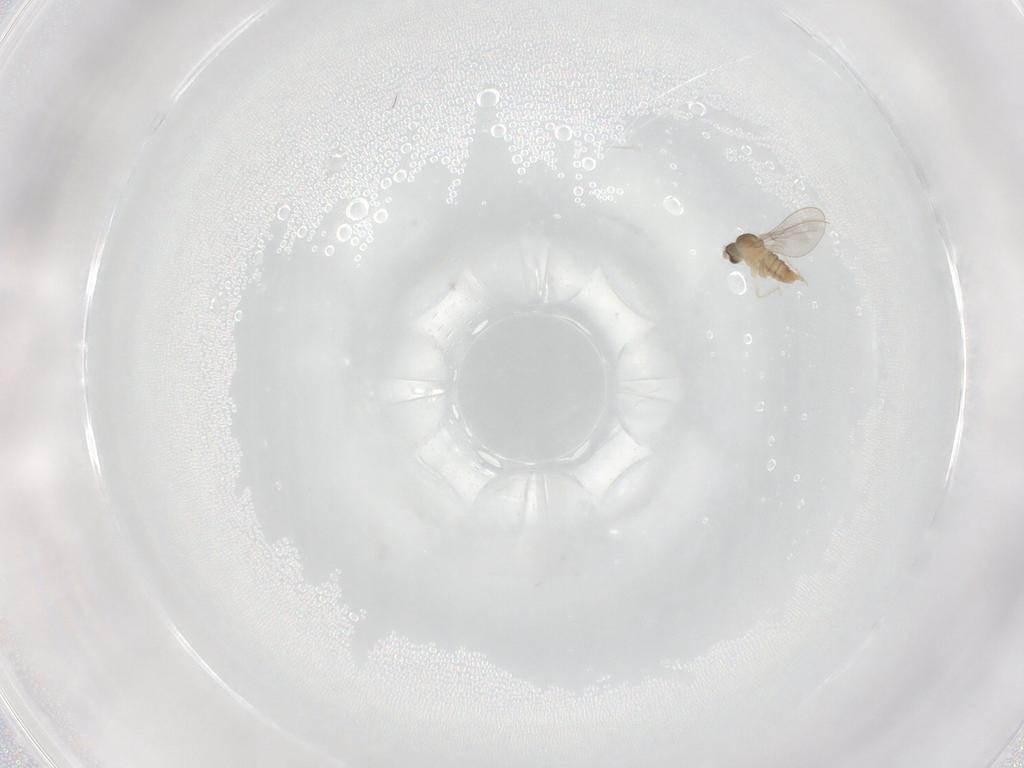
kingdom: Animalia
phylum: Arthropoda
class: Insecta
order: Diptera
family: Cecidomyiidae
